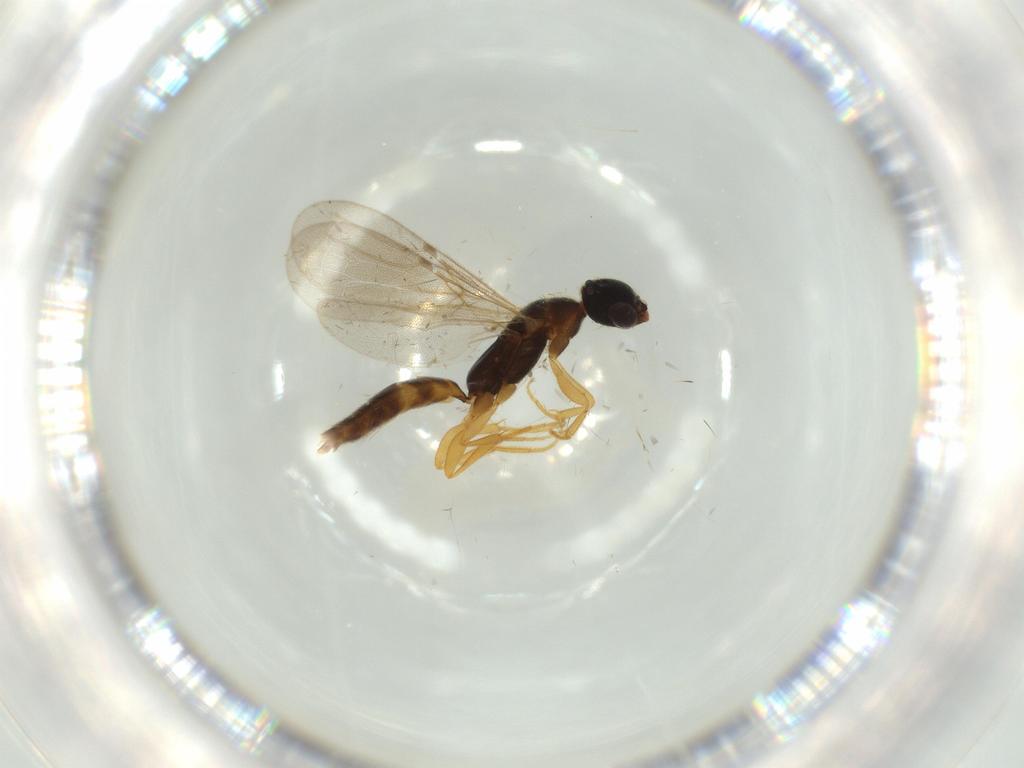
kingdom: Animalia
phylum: Arthropoda
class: Insecta
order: Hymenoptera
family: Bethylidae
